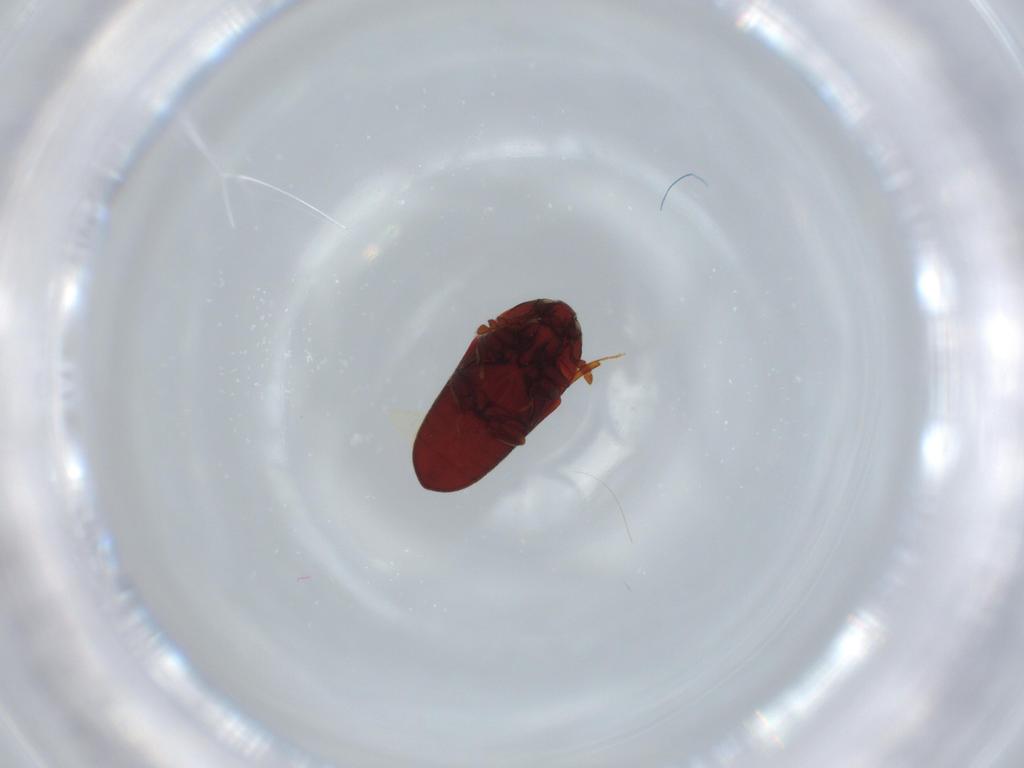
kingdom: Animalia
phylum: Arthropoda
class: Insecta
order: Coleoptera
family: Throscidae
